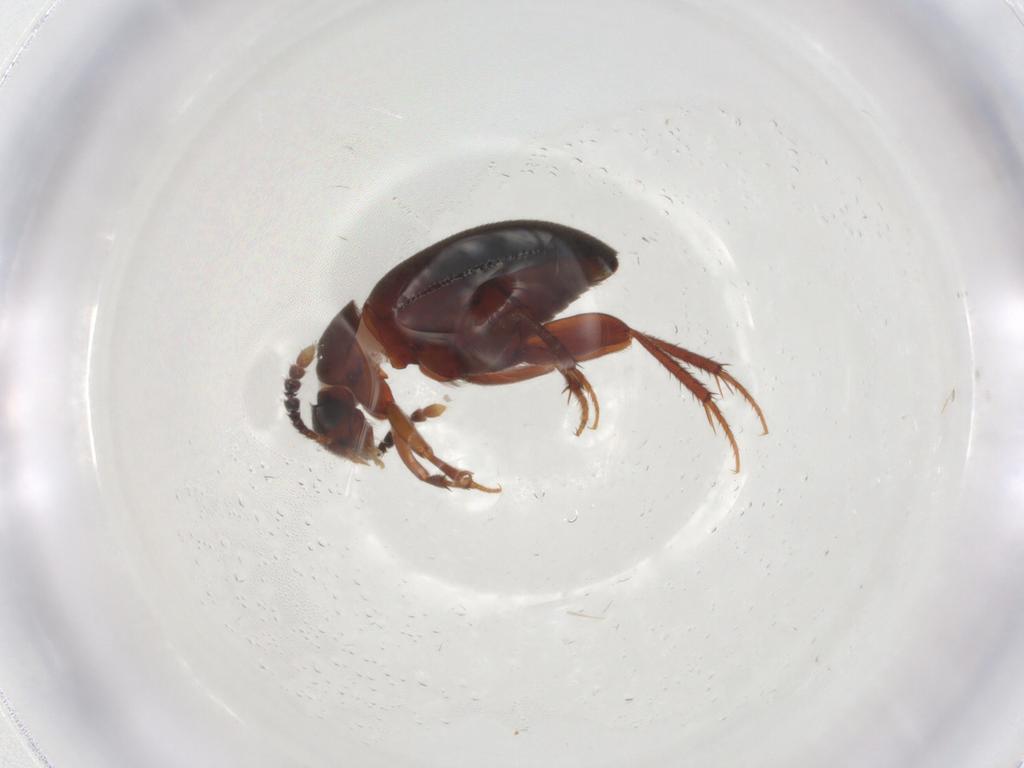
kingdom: Animalia
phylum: Arthropoda
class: Insecta
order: Coleoptera
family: Leiodidae
